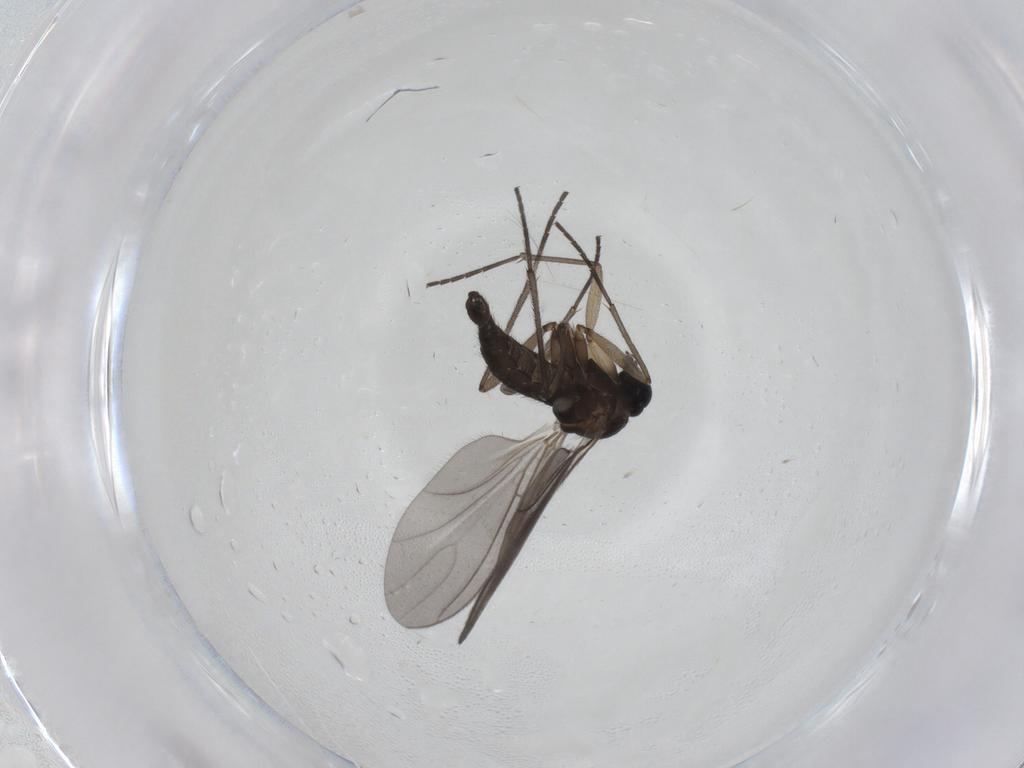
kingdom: Animalia
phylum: Arthropoda
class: Insecta
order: Diptera
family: Sciaridae
